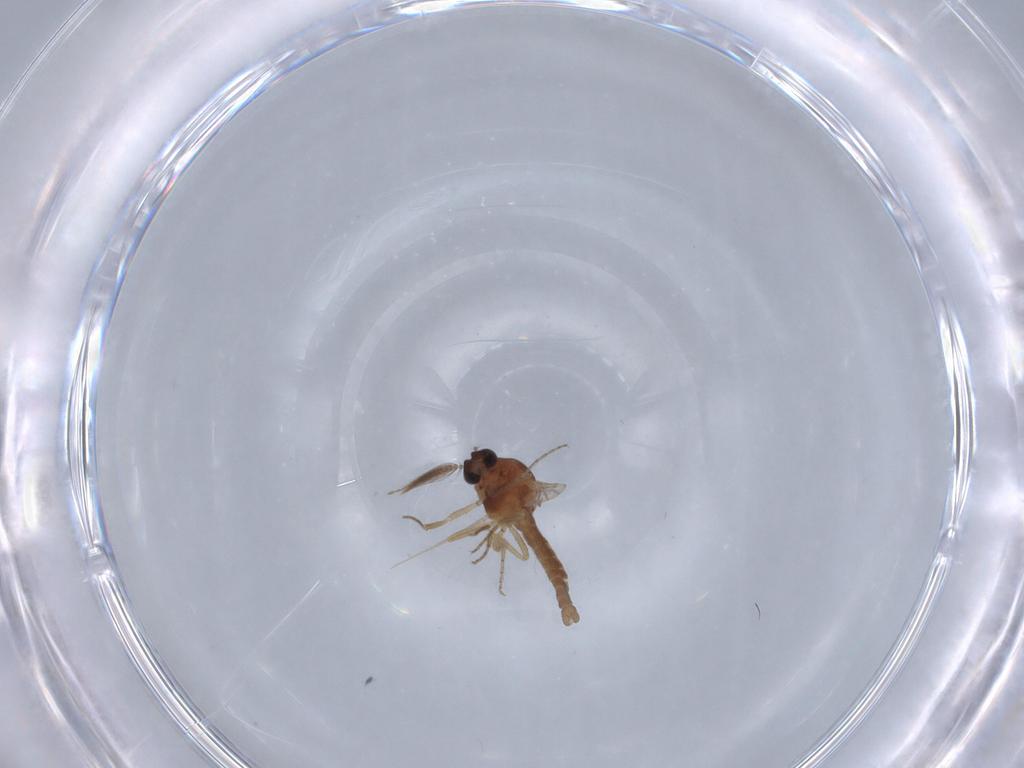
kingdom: Animalia
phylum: Arthropoda
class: Insecta
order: Diptera
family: Ceratopogonidae
